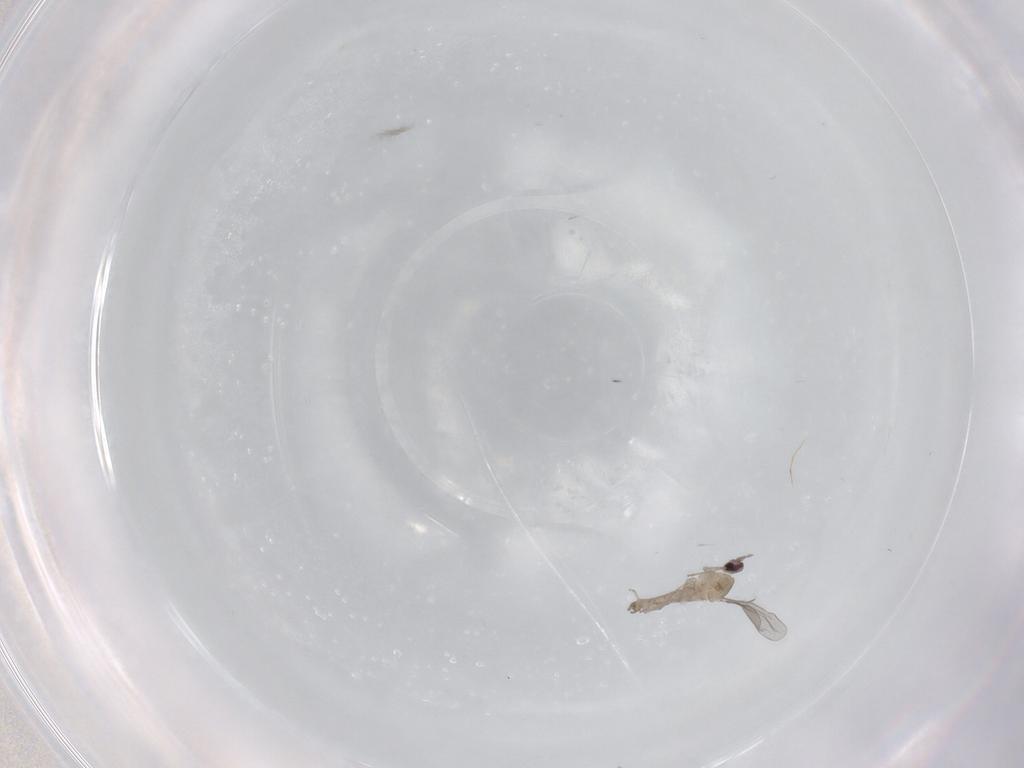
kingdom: Animalia
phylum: Arthropoda
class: Insecta
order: Diptera
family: Cecidomyiidae
